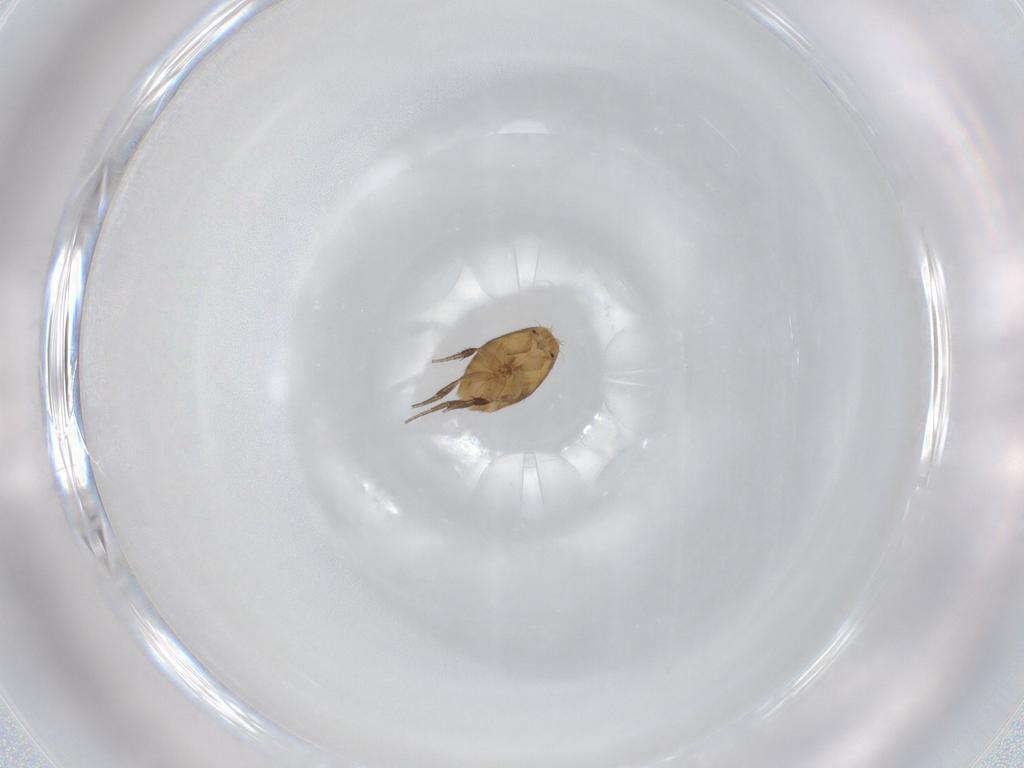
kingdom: Animalia
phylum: Arthropoda
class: Insecta
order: Diptera
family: Phoridae
